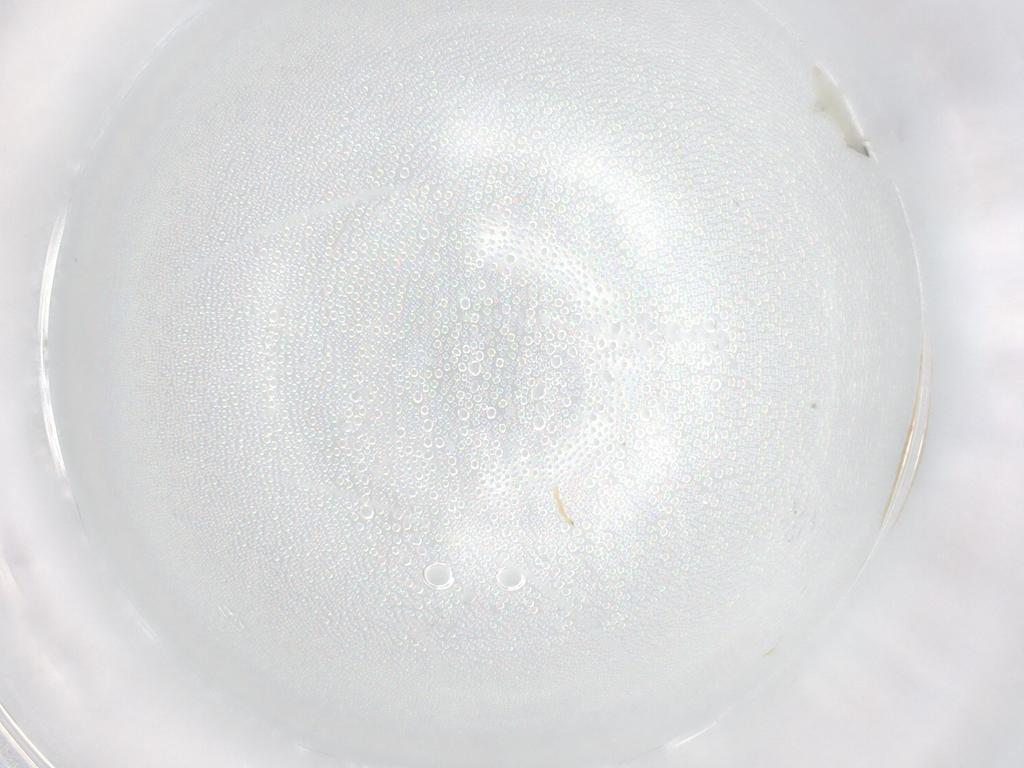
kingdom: Animalia
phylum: Arthropoda
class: Insecta
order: Diptera
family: Cecidomyiidae
